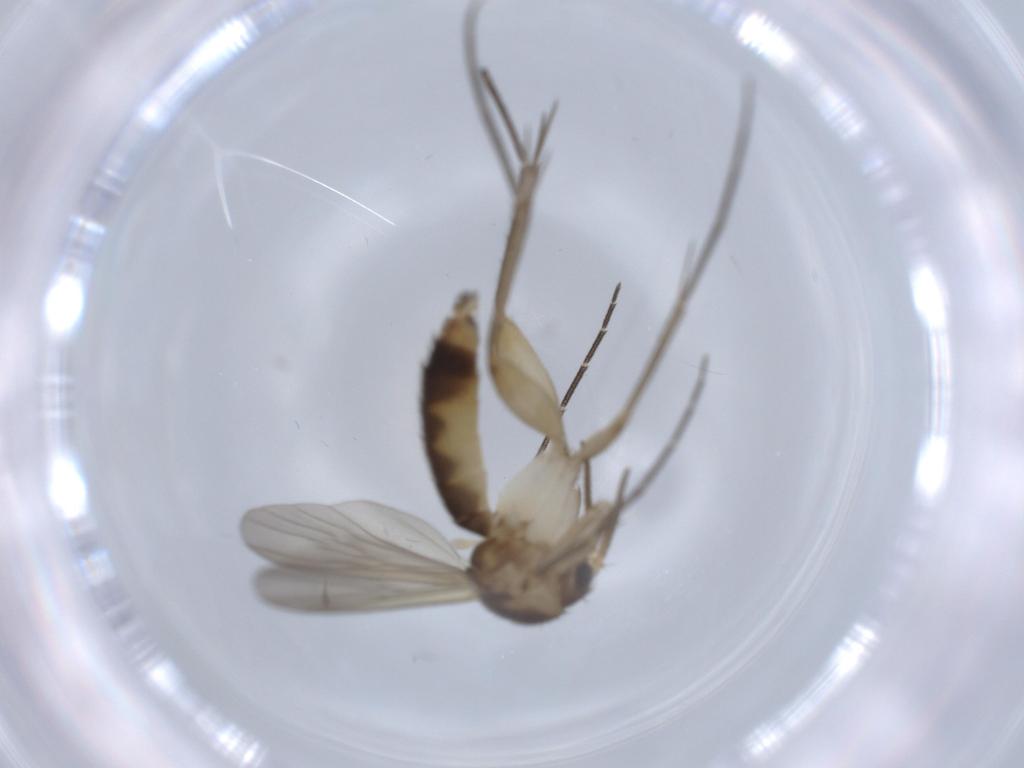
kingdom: Animalia
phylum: Arthropoda
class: Insecta
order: Diptera
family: Mycetophilidae
